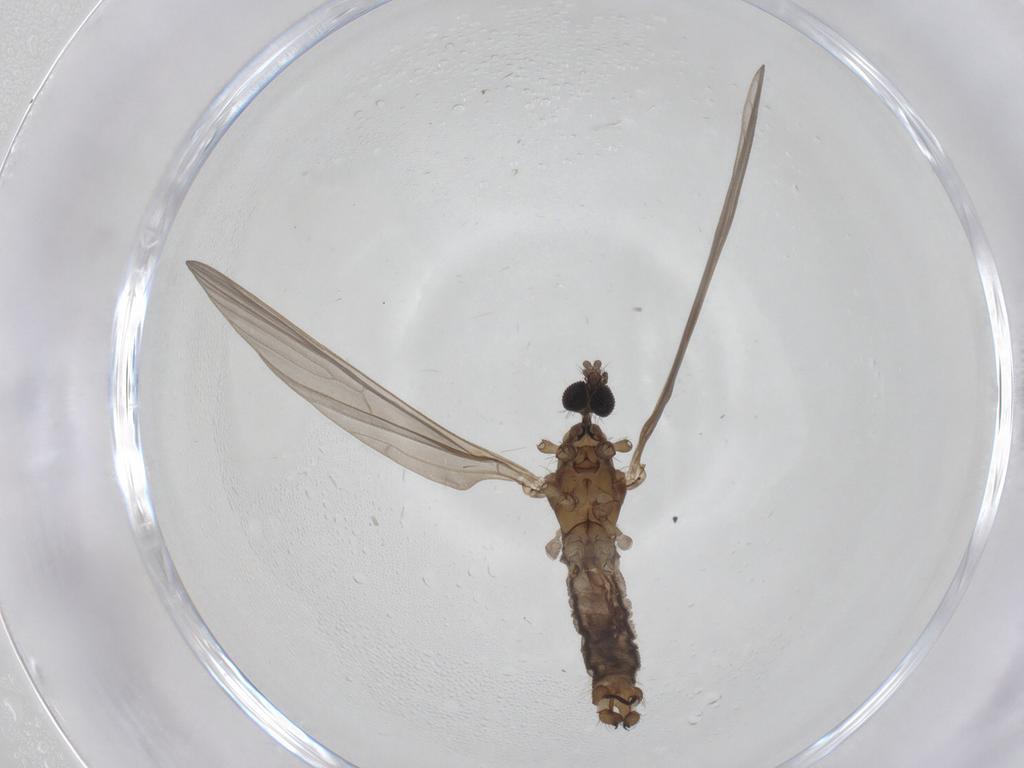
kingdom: Animalia
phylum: Arthropoda
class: Insecta
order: Diptera
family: Limoniidae
